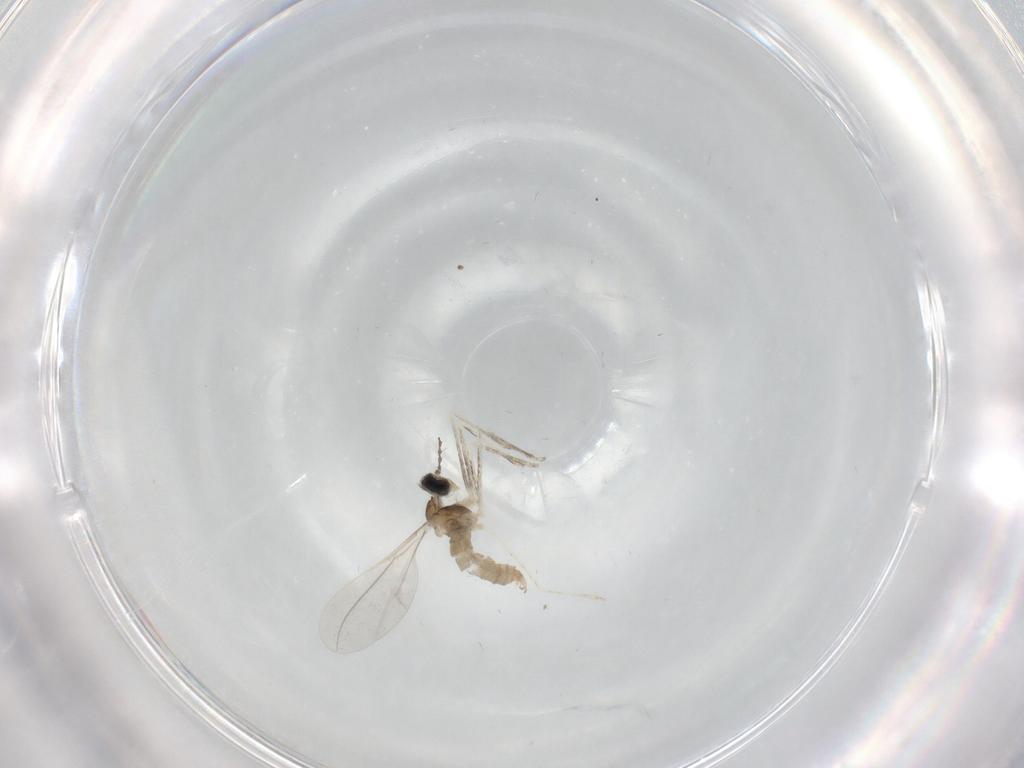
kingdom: Animalia
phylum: Arthropoda
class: Insecta
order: Diptera
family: Cecidomyiidae
